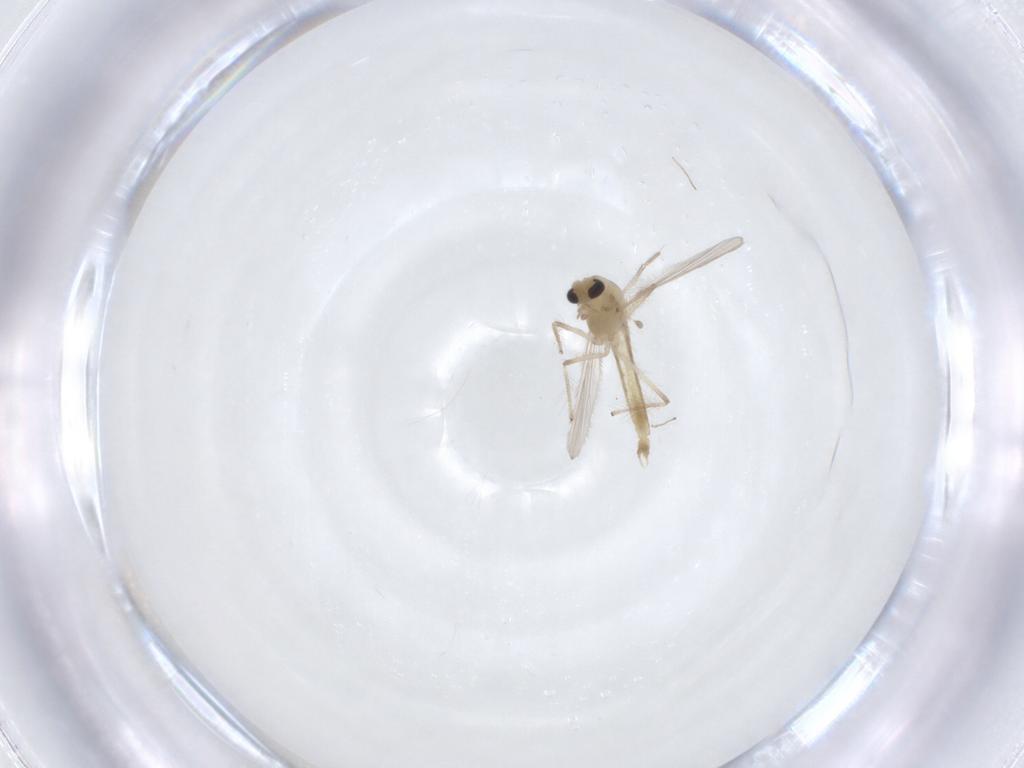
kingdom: Animalia
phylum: Arthropoda
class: Insecta
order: Diptera
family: Chironomidae
